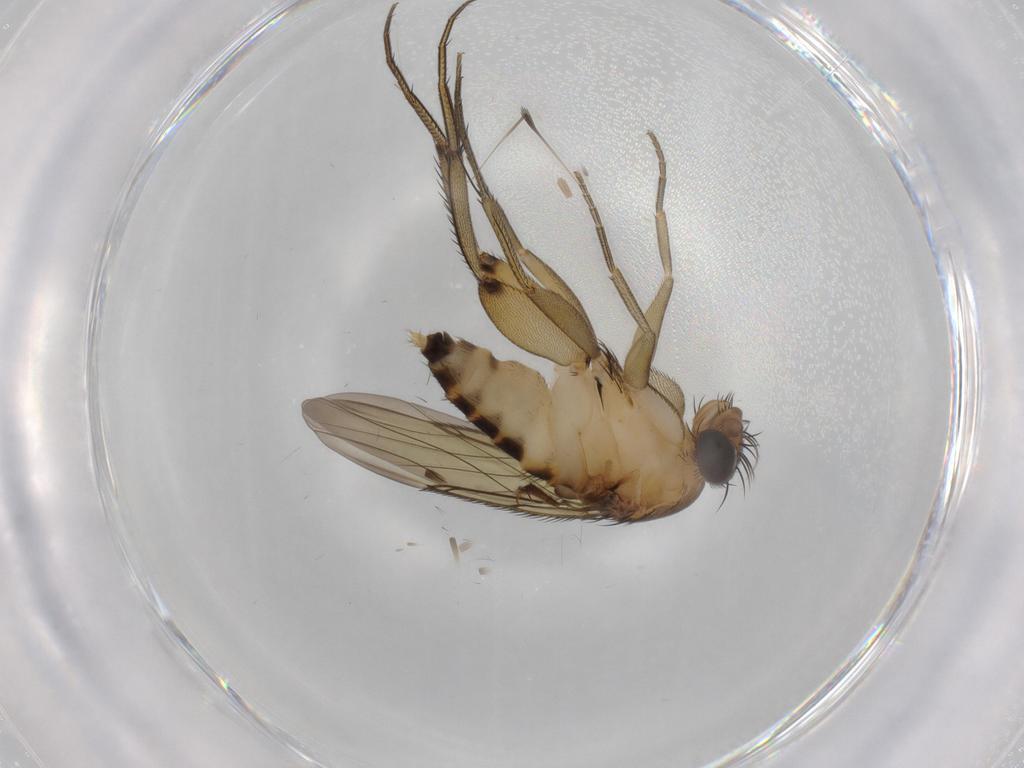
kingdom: Animalia
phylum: Arthropoda
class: Insecta
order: Diptera
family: Phoridae
